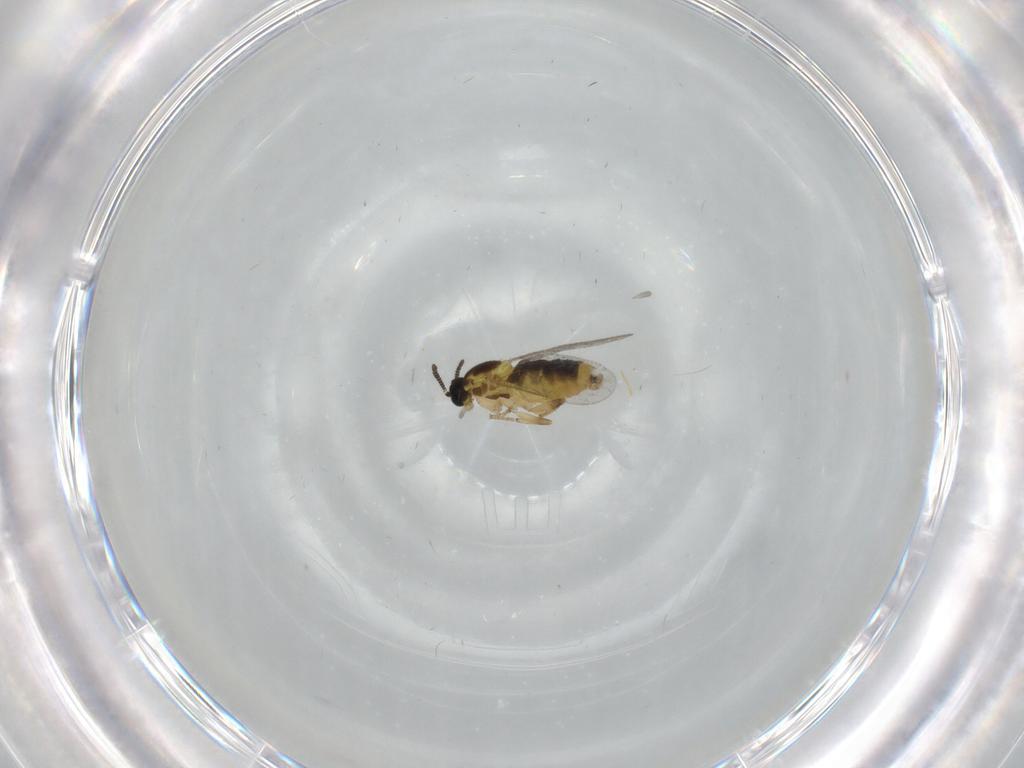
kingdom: Animalia
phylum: Arthropoda
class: Insecta
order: Diptera
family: Scatopsidae
